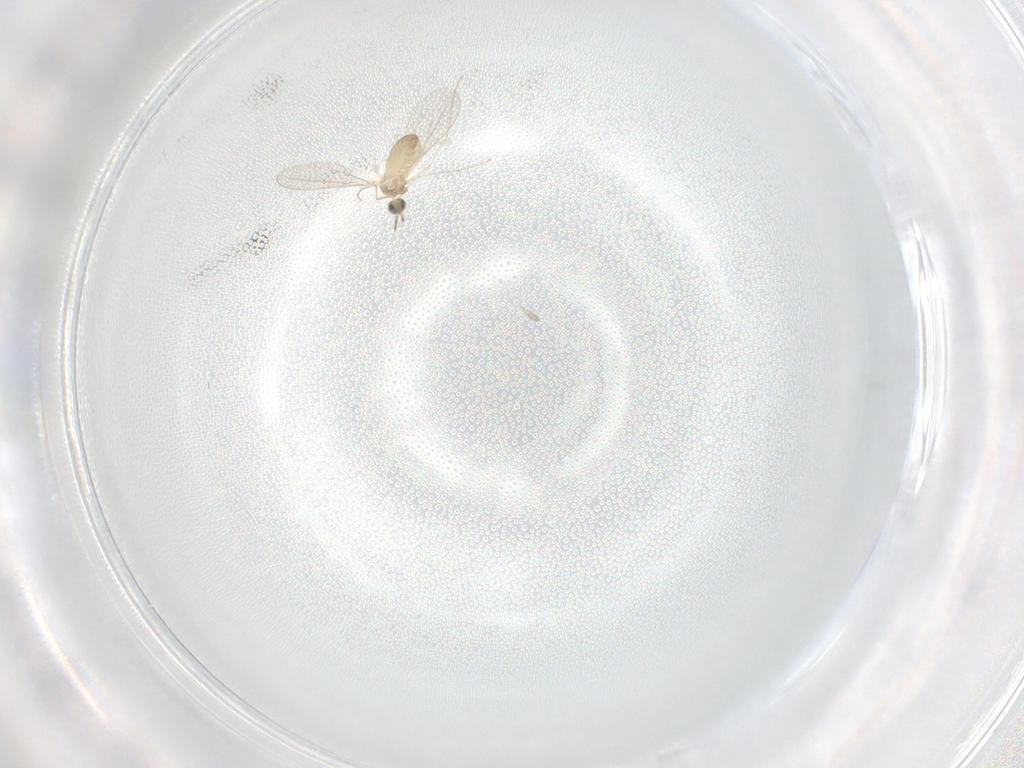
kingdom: Animalia
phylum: Arthropoda
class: Insecta
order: Diptera
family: Cecidomyiidae
